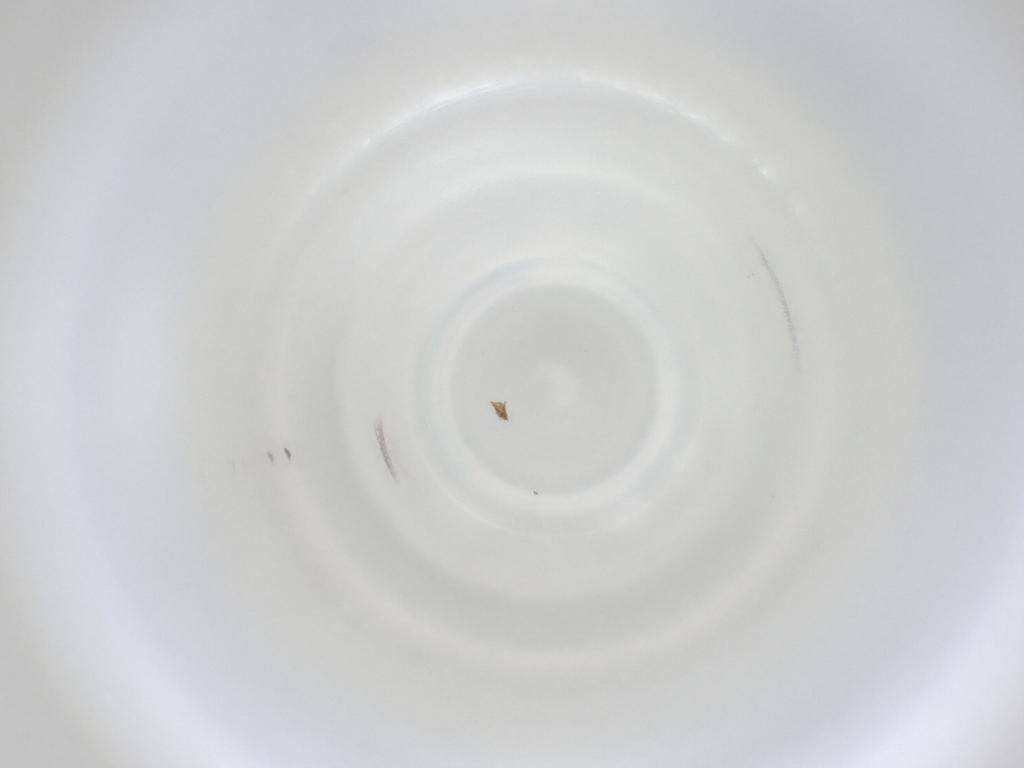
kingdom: Animalia
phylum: Arthropoda
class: Insecta
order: Diptera
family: Cecidomyiidae
